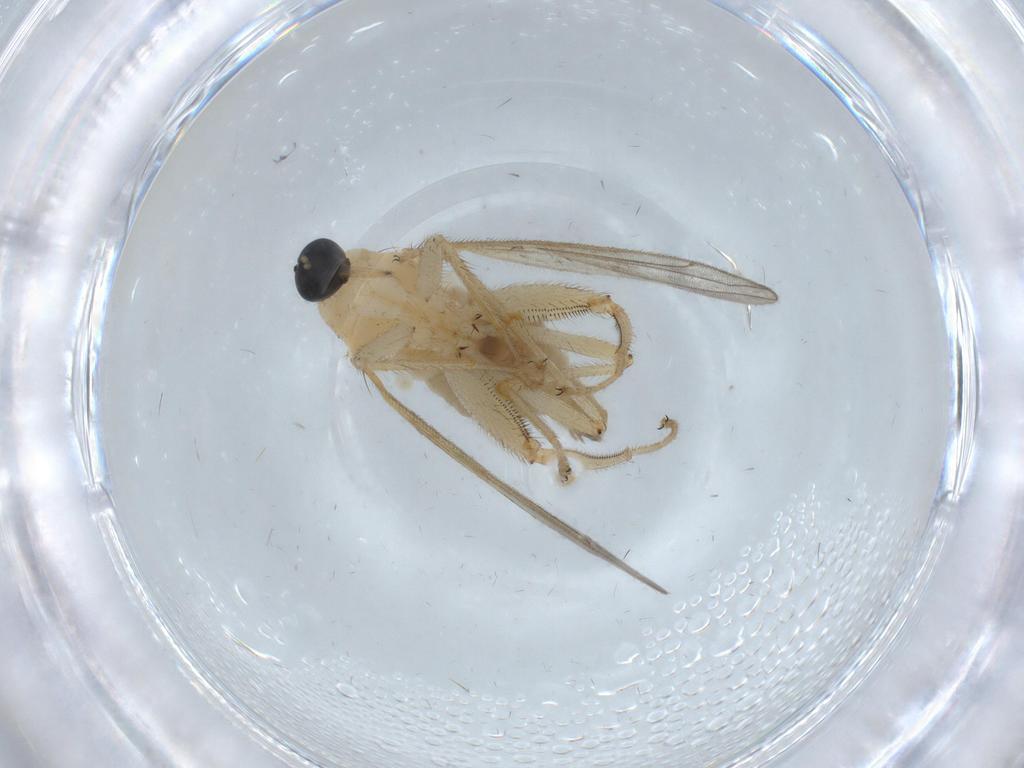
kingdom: Animalia
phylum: Arthropoda
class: Insecta
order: Diptera
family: Hybotidae
